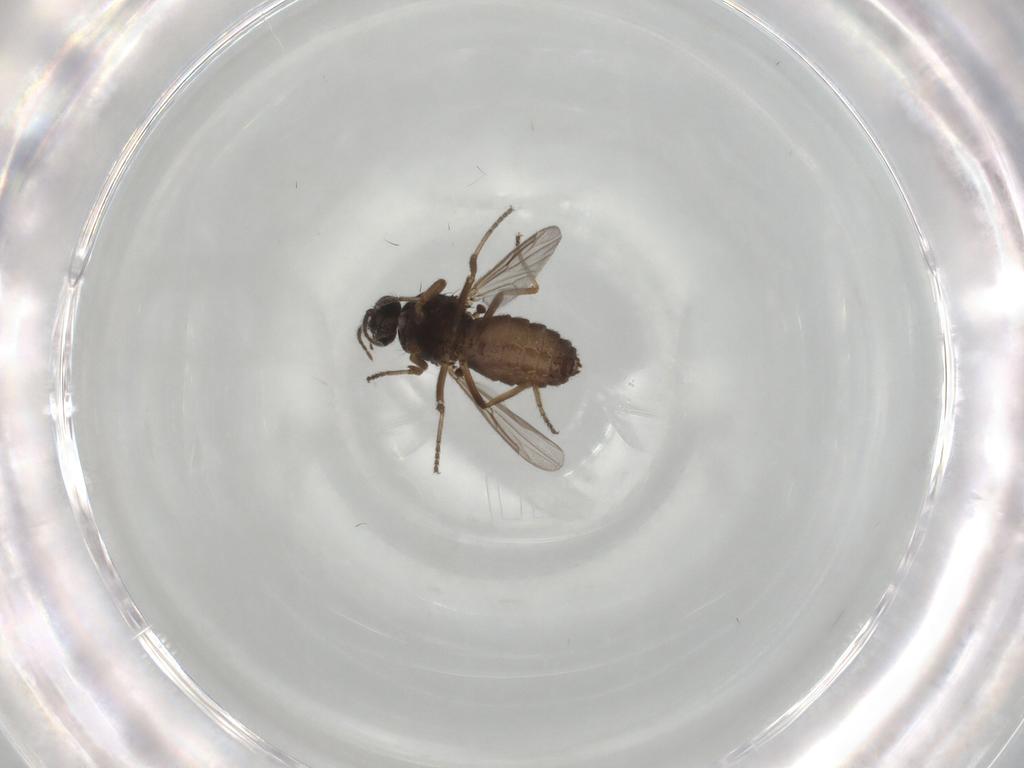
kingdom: Animalia
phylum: Arthropoda
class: Insecta
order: Diptera
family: Ceratopogonidae
